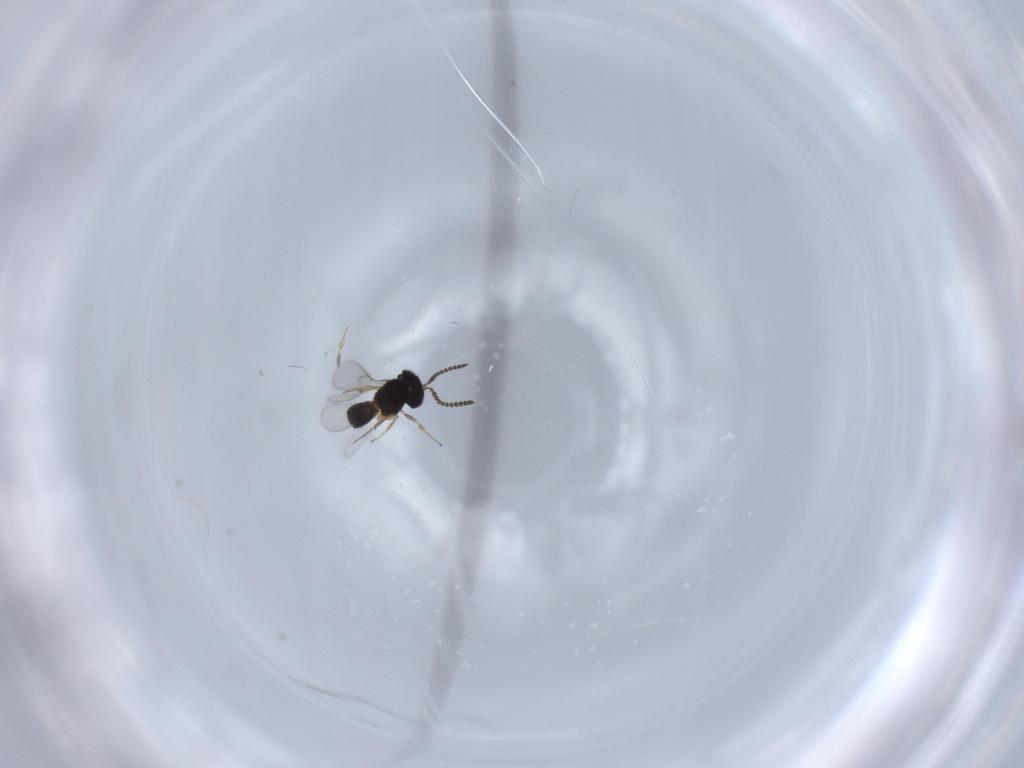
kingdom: Animalia
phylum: Arthropoda
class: Insecta
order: Hymenoptera
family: Scelionidae
